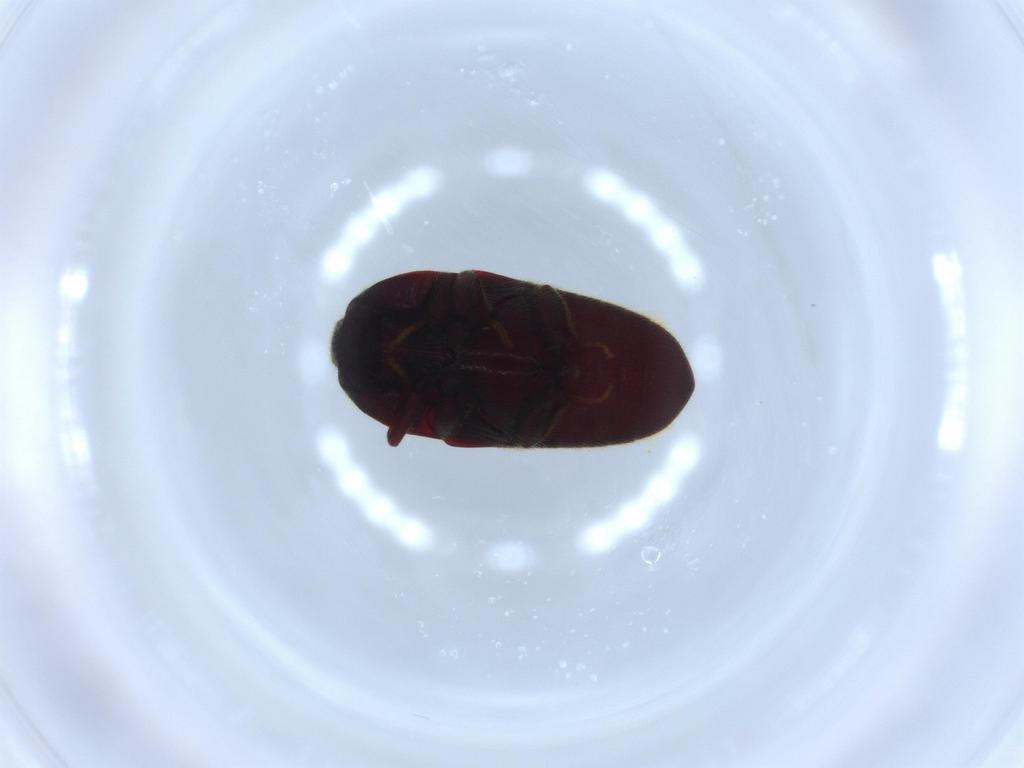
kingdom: Animalia
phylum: Arthropoda
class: Insecta
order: Coleoptera
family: Throscidae
